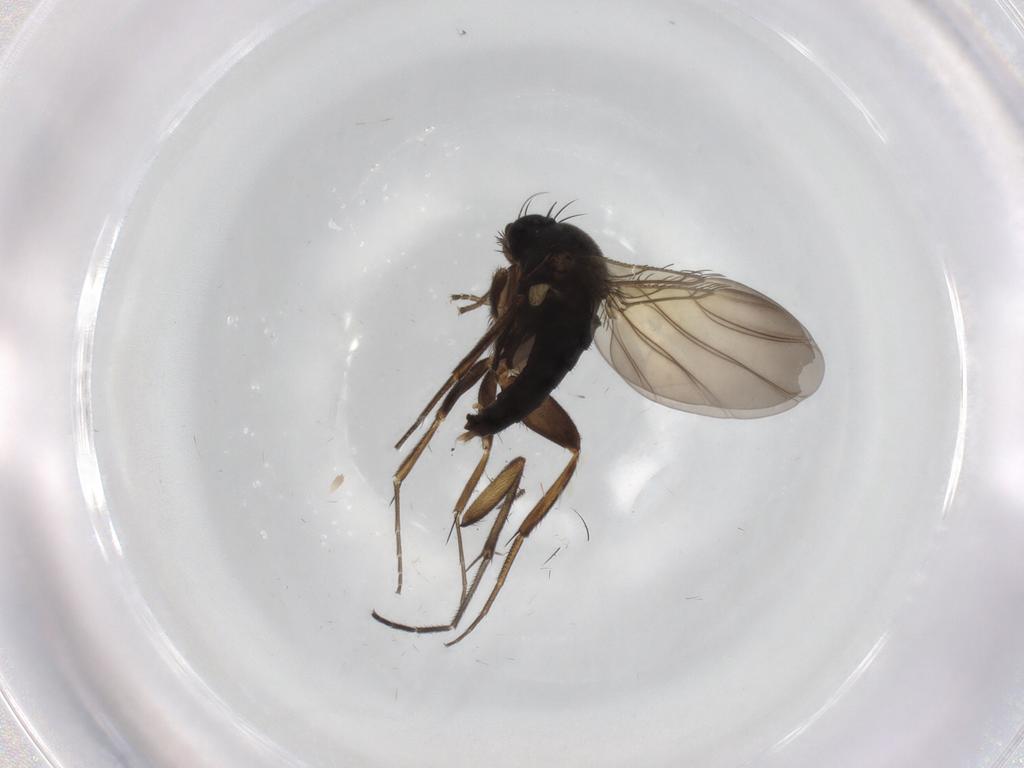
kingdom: Animalia
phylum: Arthropoda
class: Insecta
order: Diptera
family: Phoridae
